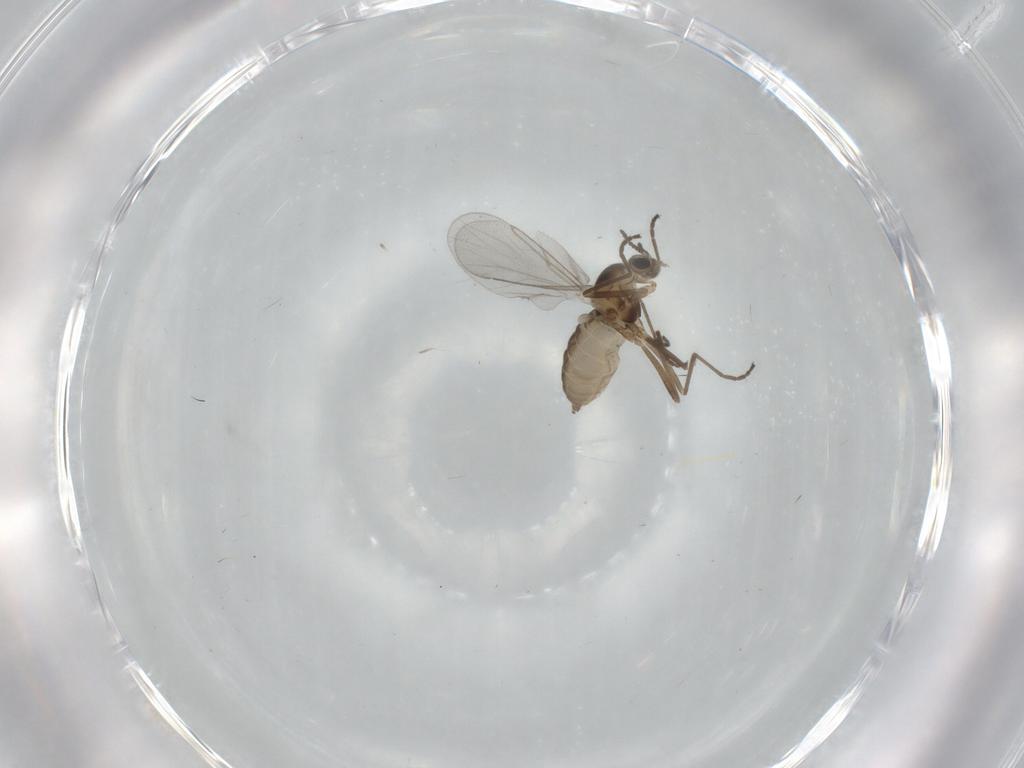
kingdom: Animalia
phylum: Arthropoda
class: Insecta
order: Diptera
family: Cecidomyiidae
